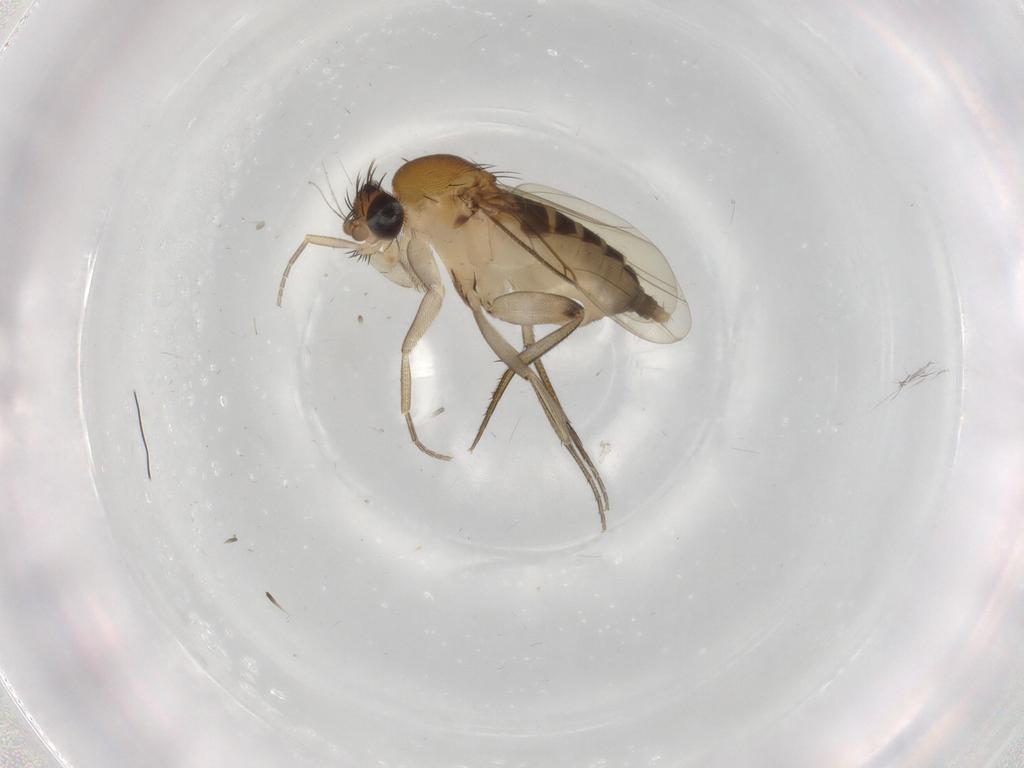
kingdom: Animalia
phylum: Arthropoda
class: Insecta
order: Diptera
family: Phoridae
